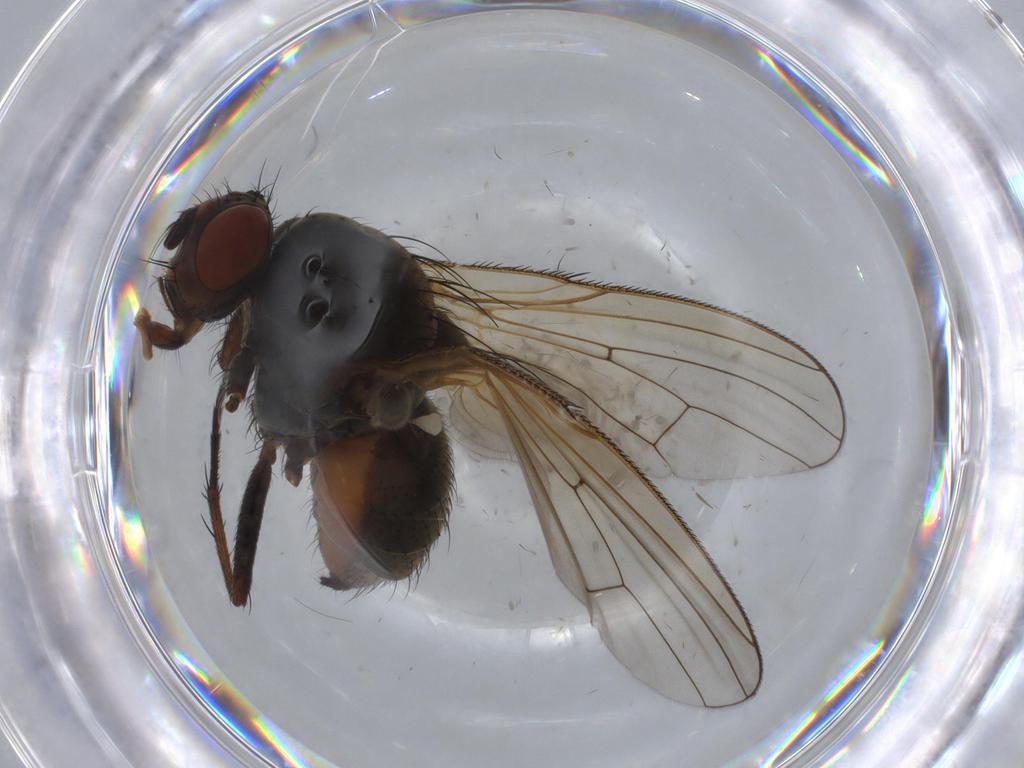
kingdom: Animalia
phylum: Arthropoda
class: Insecta
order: Diptera
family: Anthomyiidae
